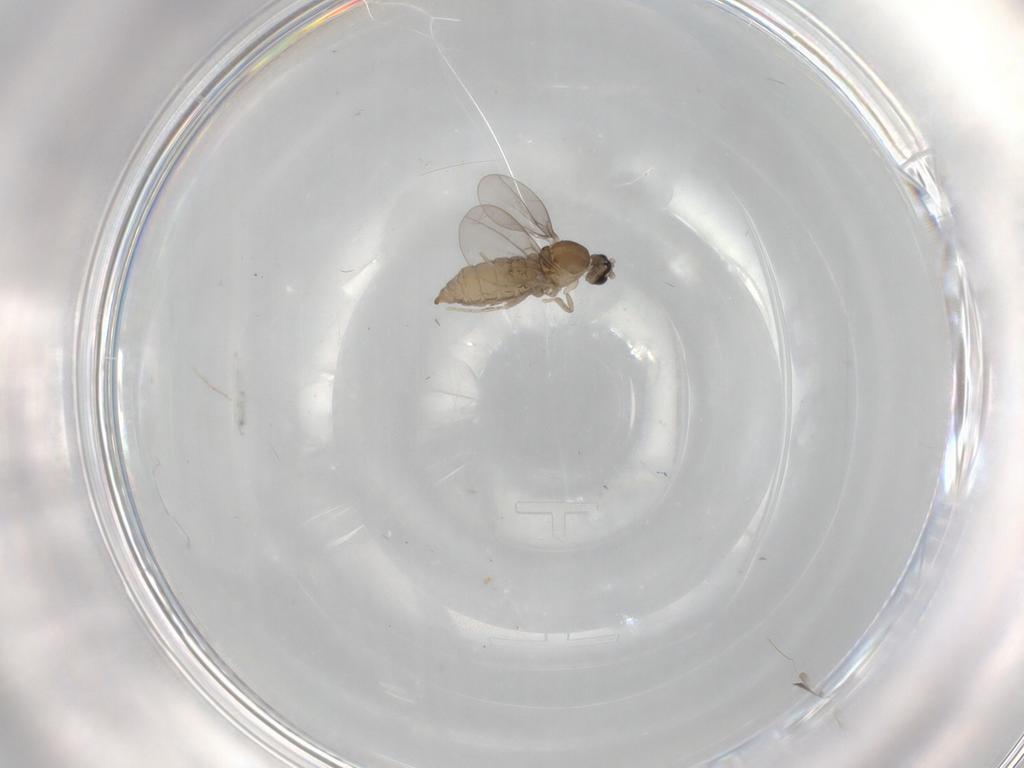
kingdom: Animalia
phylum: Arthropoda
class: Insecta
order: Diptera
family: Cecidomyiidae
